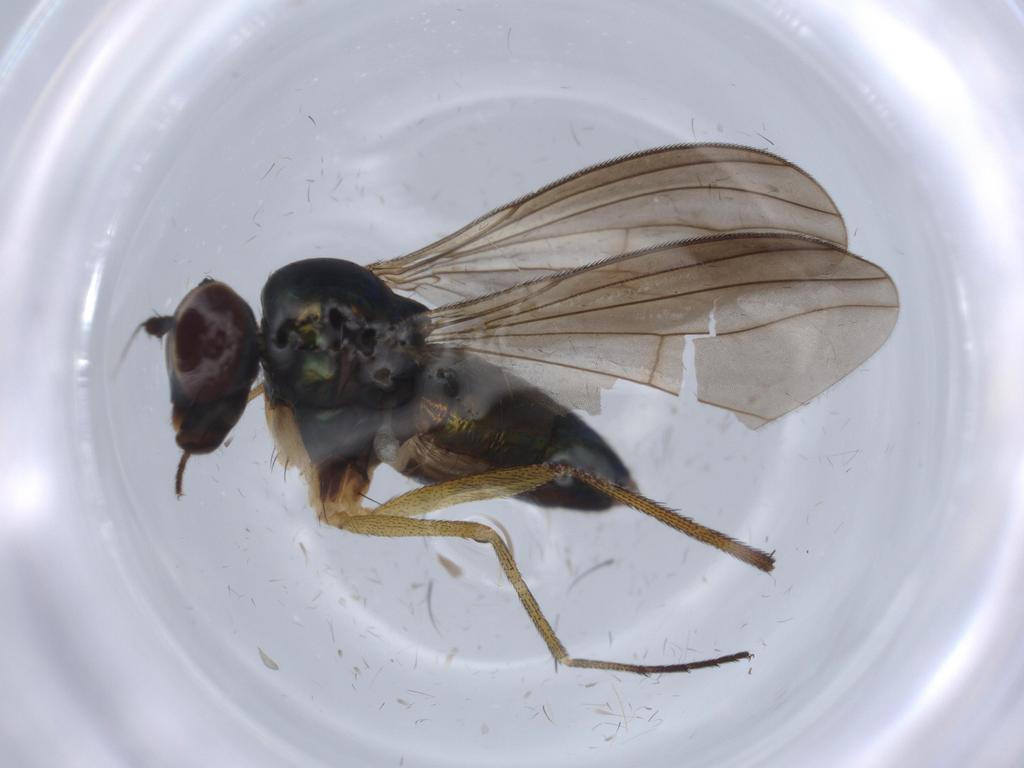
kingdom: Animalia
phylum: Arthropoda
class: Insecta
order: Diptera
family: Dolichopodidae
